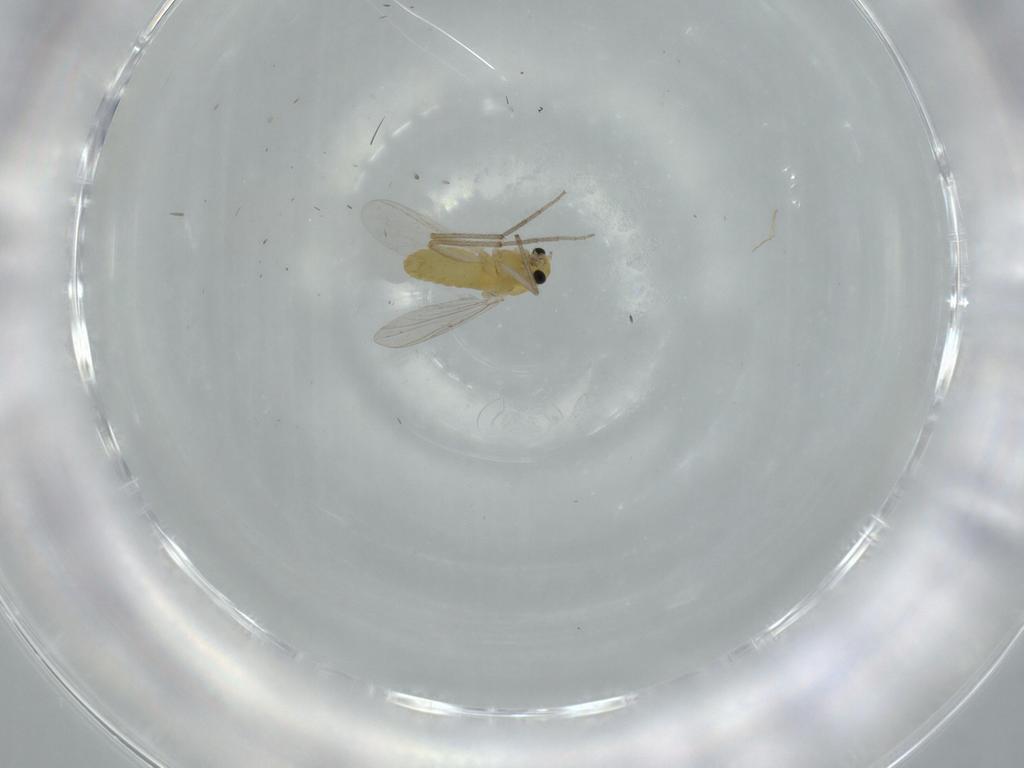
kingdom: Animalia
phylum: Arthropoda
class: Insecta
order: Diptera
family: Chironomidae
